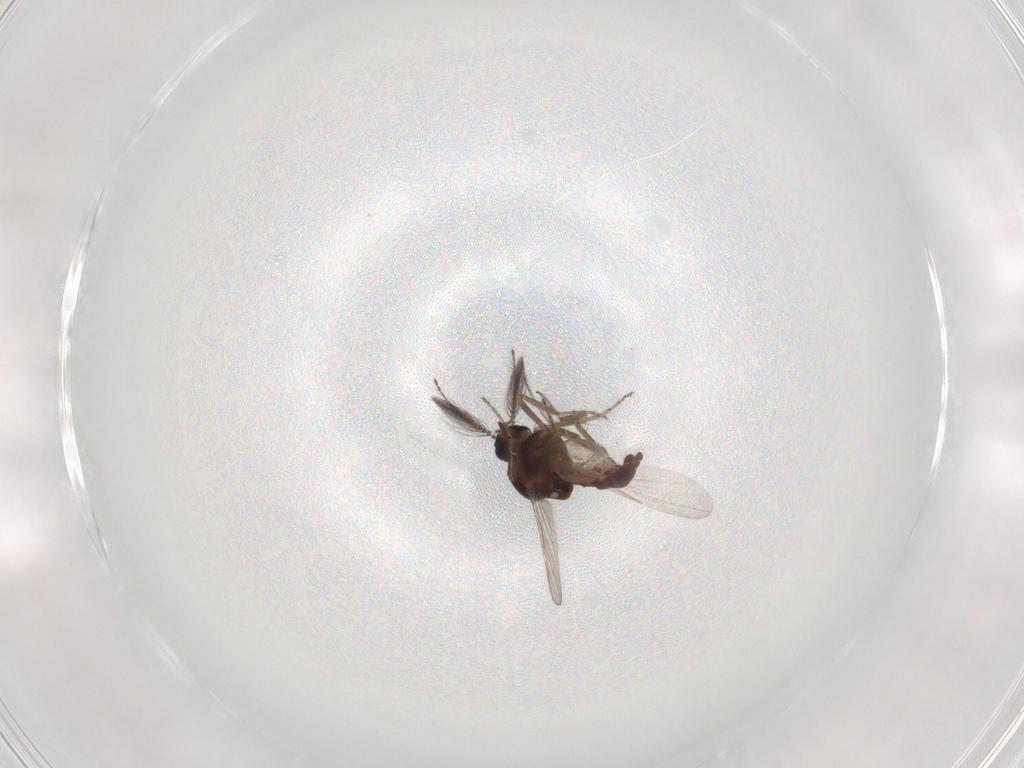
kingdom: Animalia
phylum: Arthropoda
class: Insecta
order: Diptera
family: Ceratopogonidae
